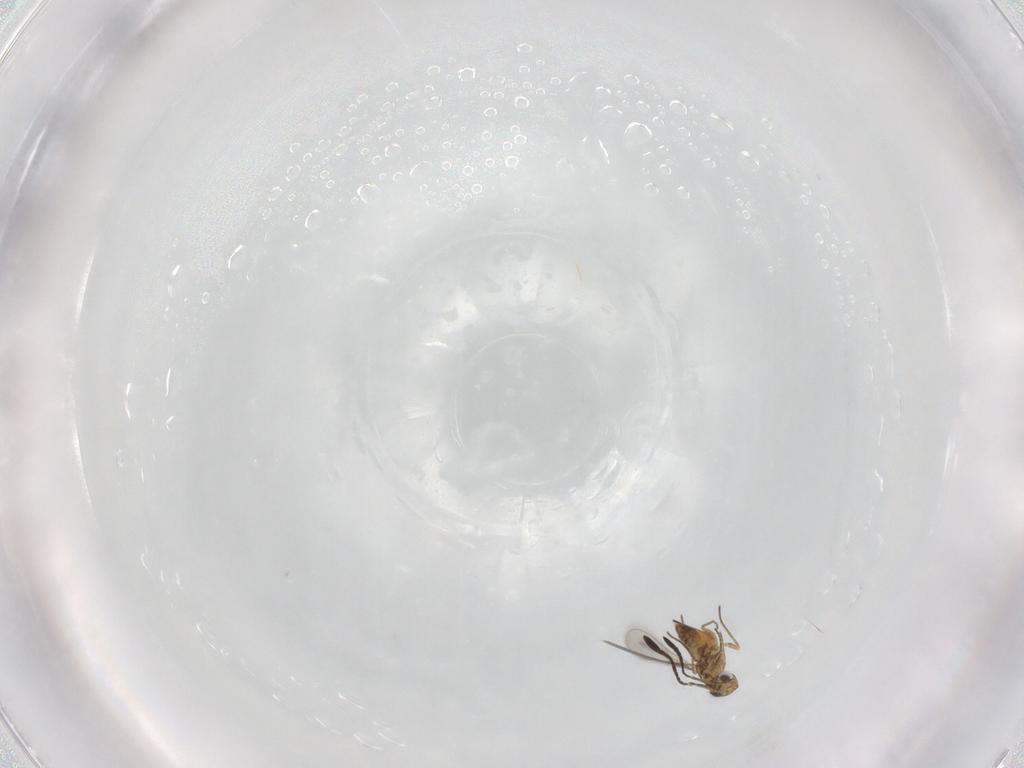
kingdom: Animalia
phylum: Arthropoda
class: Insecta
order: Hymenoptera
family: Mymaridae
